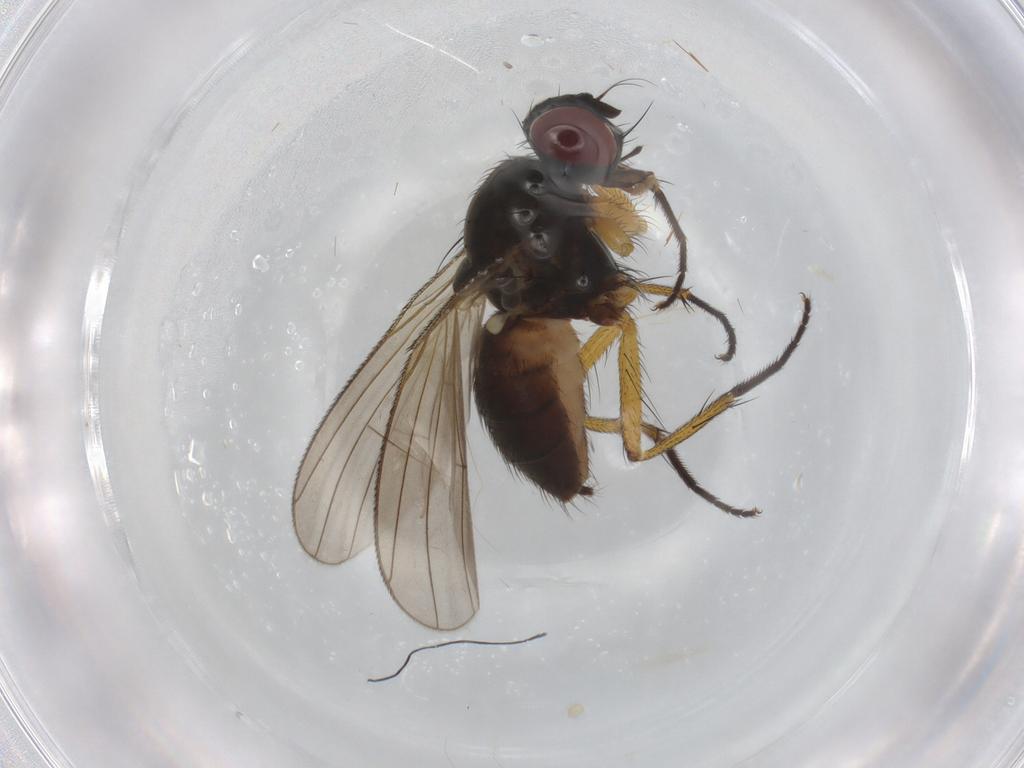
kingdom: Animalia
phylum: Arthropoda
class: Insecta
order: Diptera
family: Muscidae
